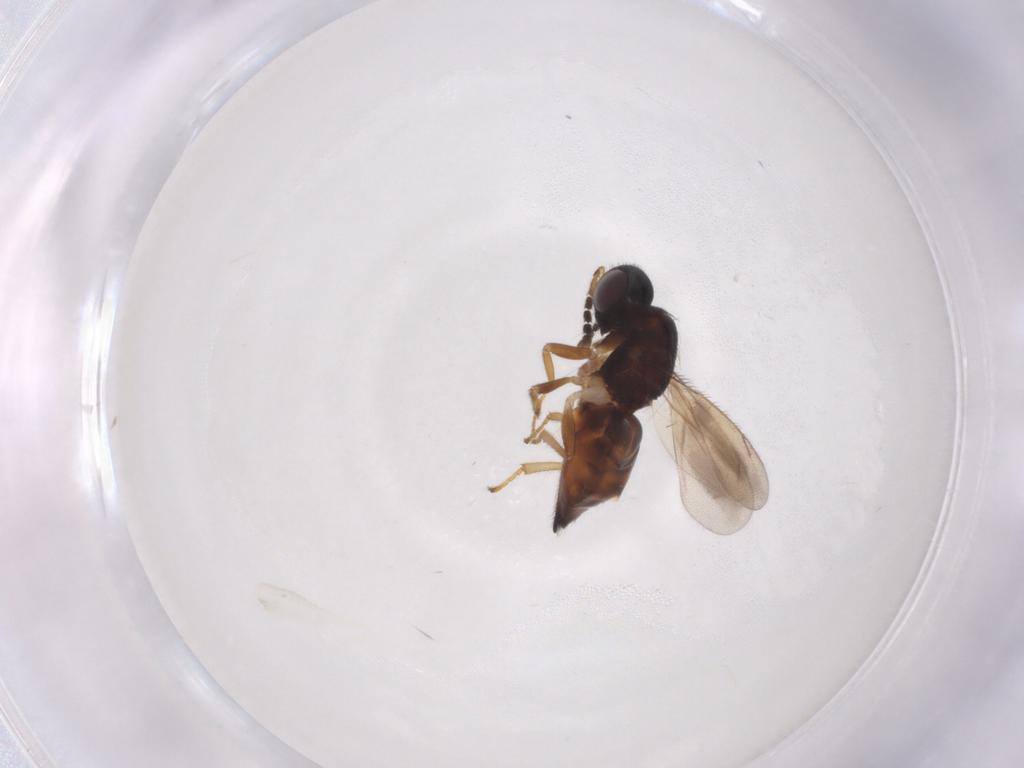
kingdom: Animalia
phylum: Arthropoda
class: Insecta
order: Hymenoptera
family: Eulophidae
